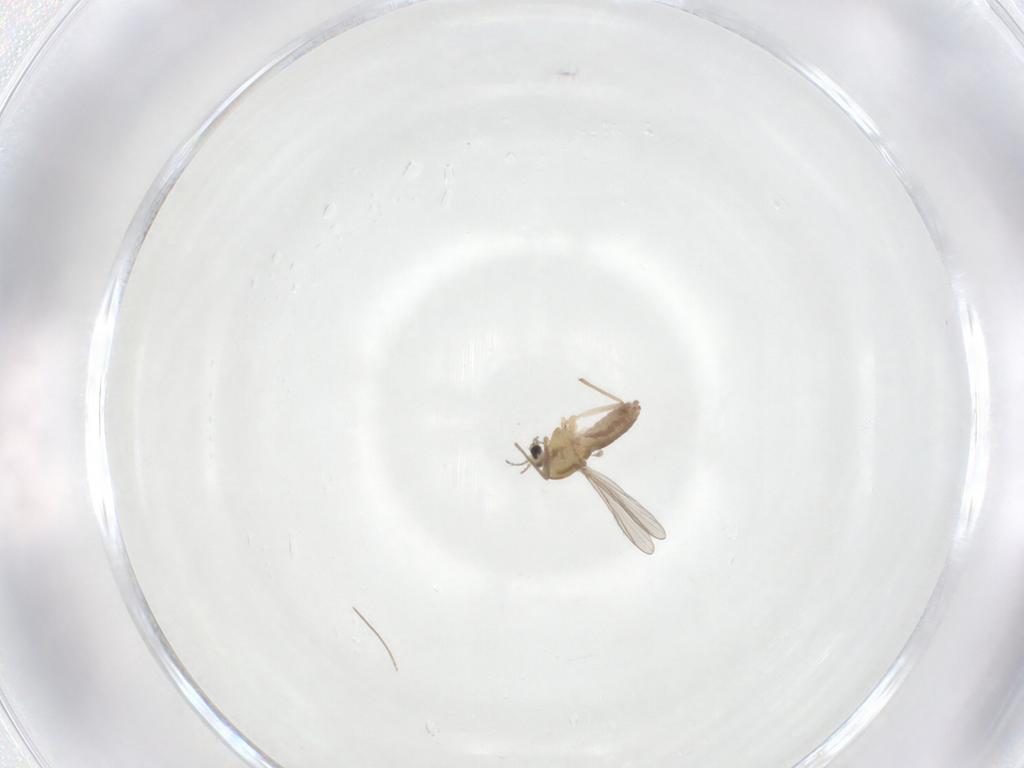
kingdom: Animalia
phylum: Arthropoda
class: Insecta
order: Diptera
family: Chironomidae
